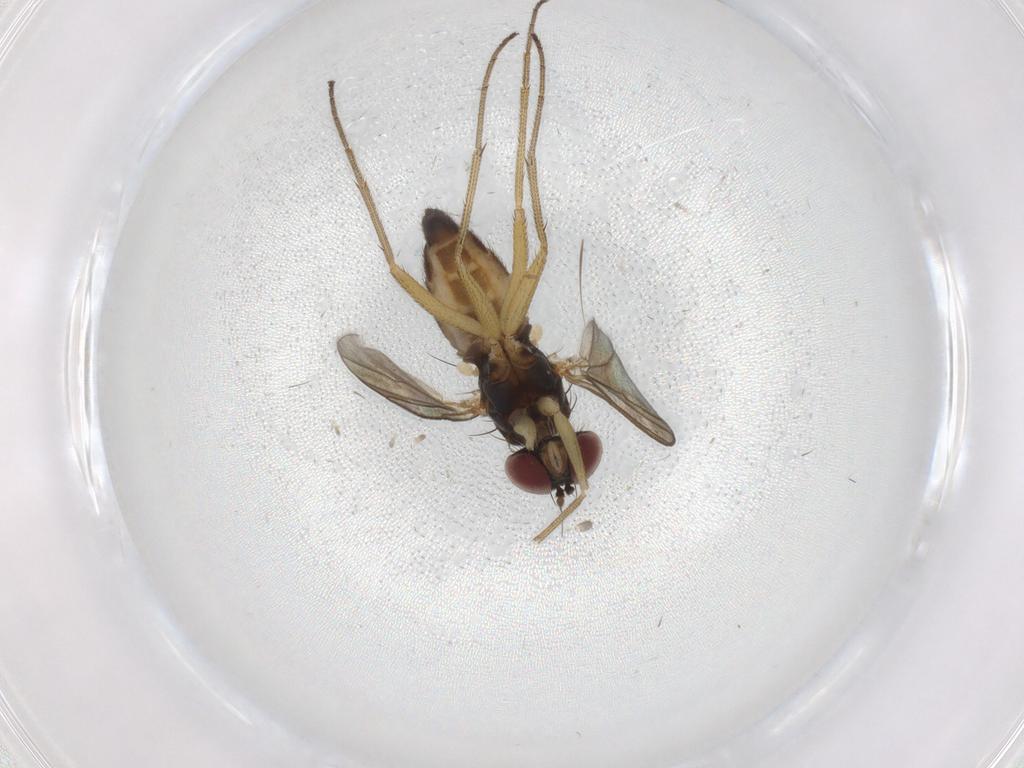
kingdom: Animalia
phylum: Arthropoda
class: Insecta
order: Diptera
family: Dolichopodidae
